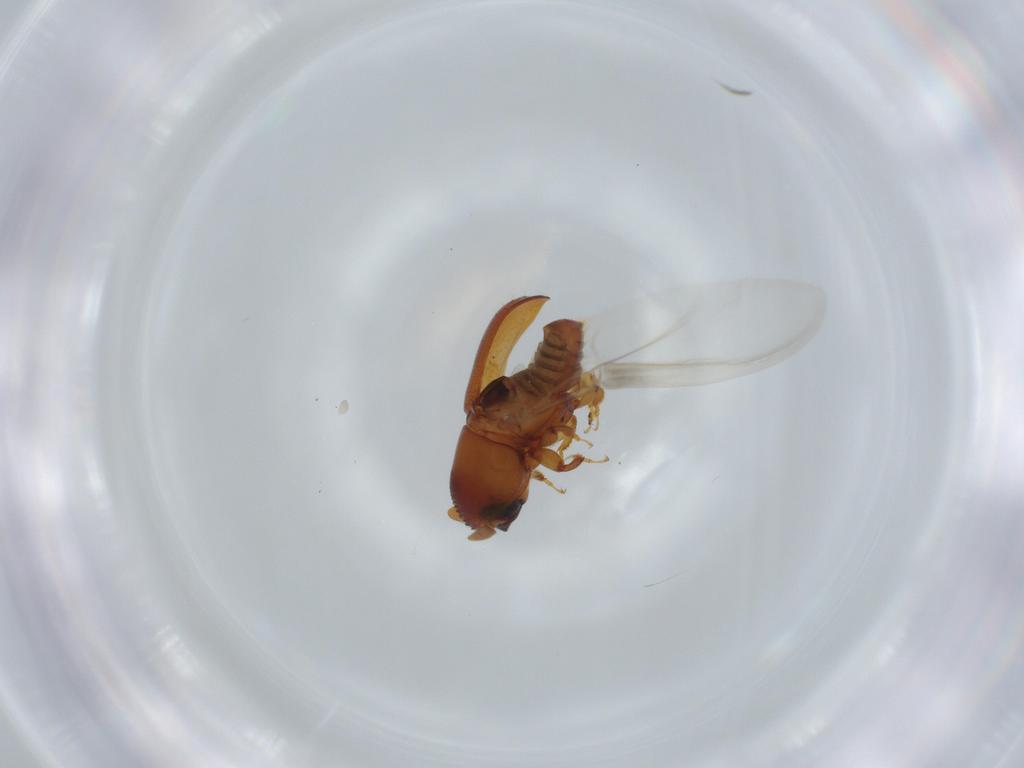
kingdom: Animalia
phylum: Arthropoda
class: Insecta
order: Coleoptera
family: Curculionidae
